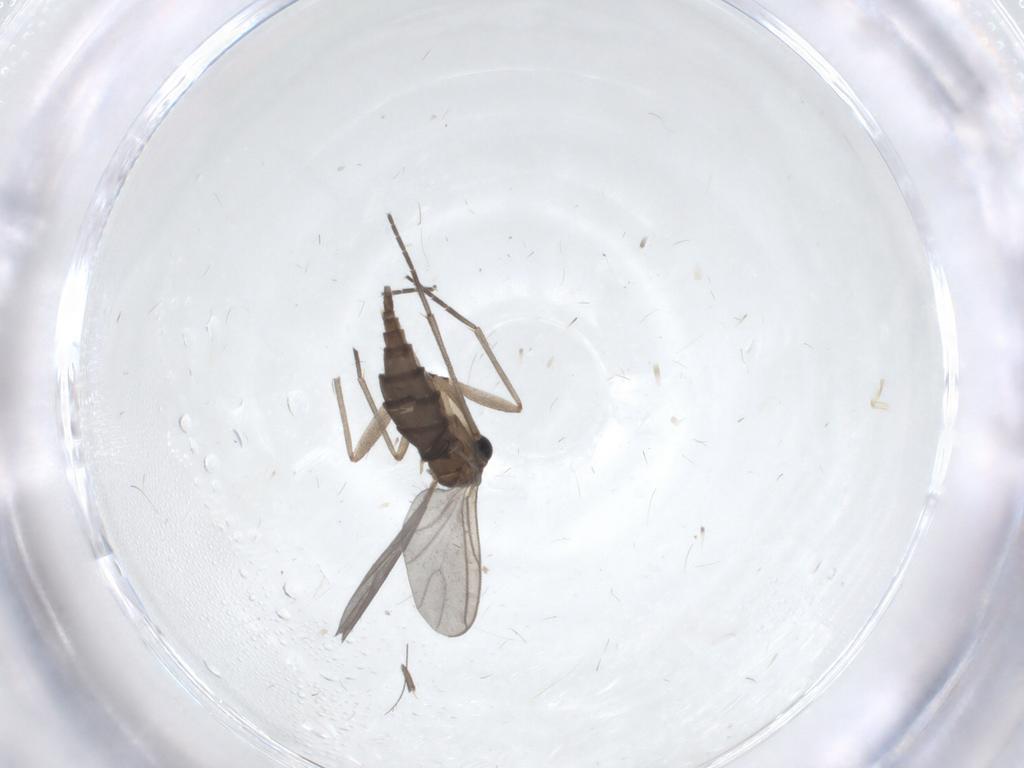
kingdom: Animalia
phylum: Arthropoda
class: Insecta
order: Diptera
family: Sciaridae
